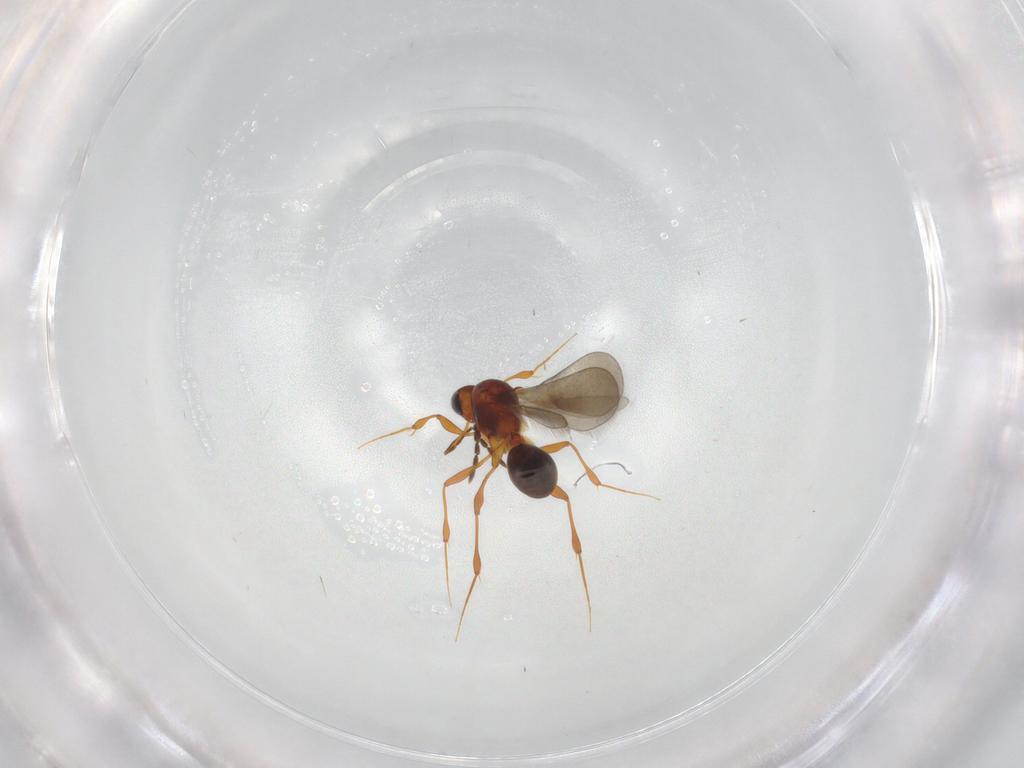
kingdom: Animalia
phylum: Arthropoda
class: Insecta
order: Hymenoptera
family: Platygastridae
